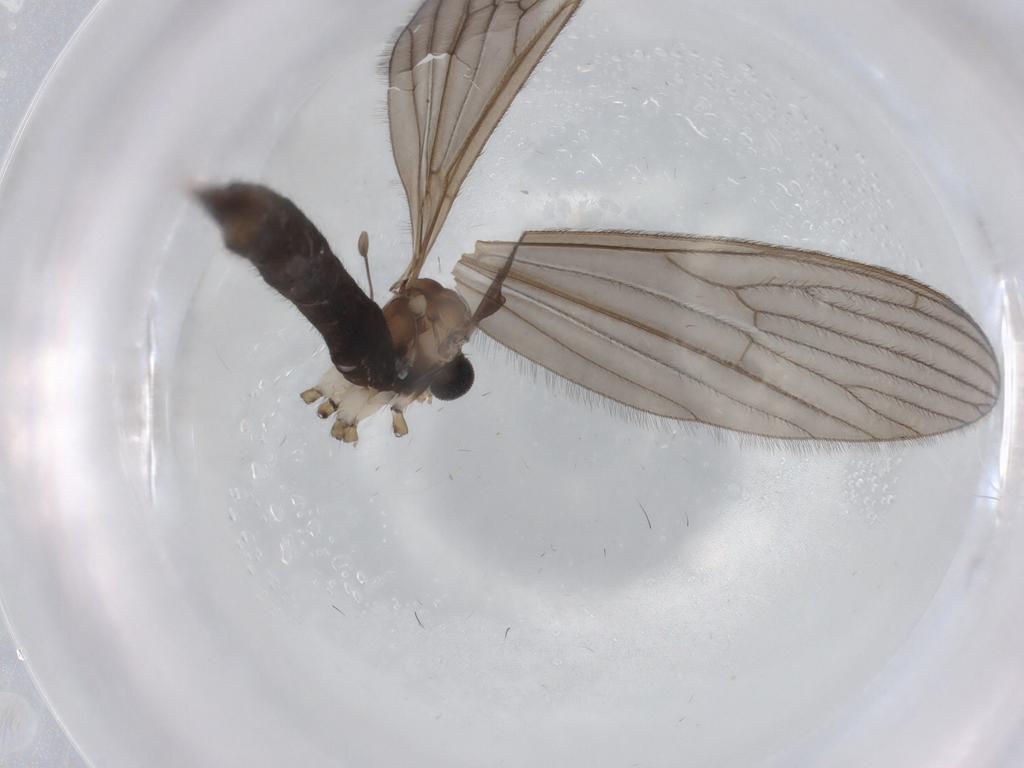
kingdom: Animalia
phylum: Arthropoda
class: Insecta
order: Diptera
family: Limoniidae
